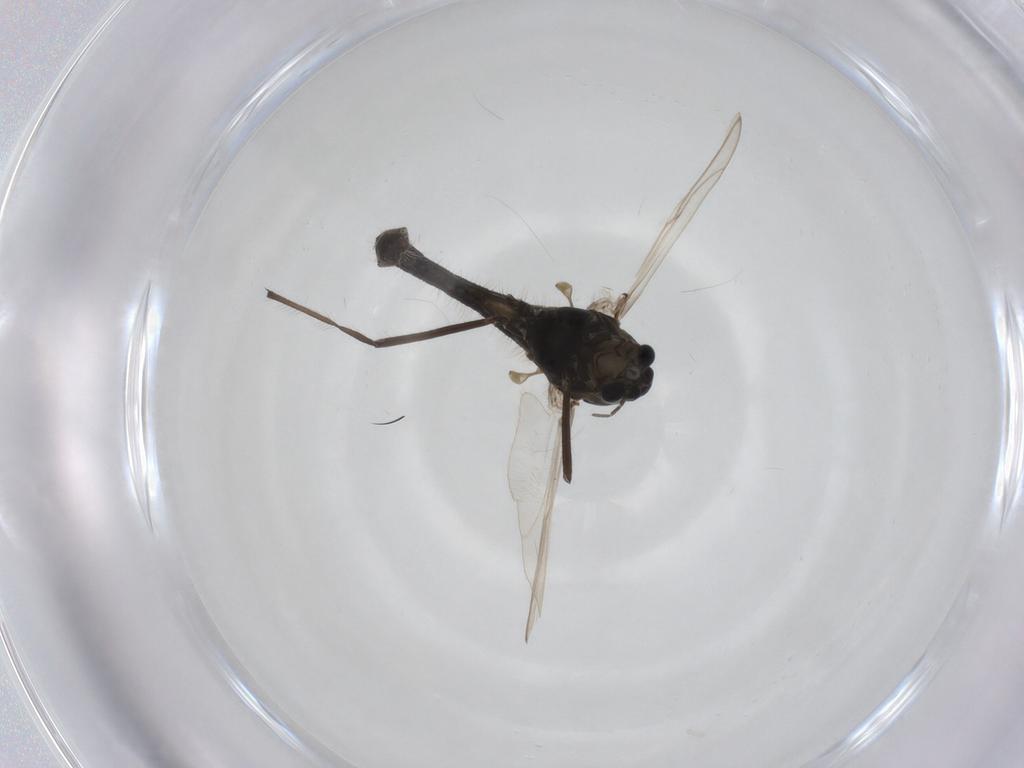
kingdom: Animalia
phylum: Arthropoda
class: Insecta
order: Diptera
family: Chironomidae
